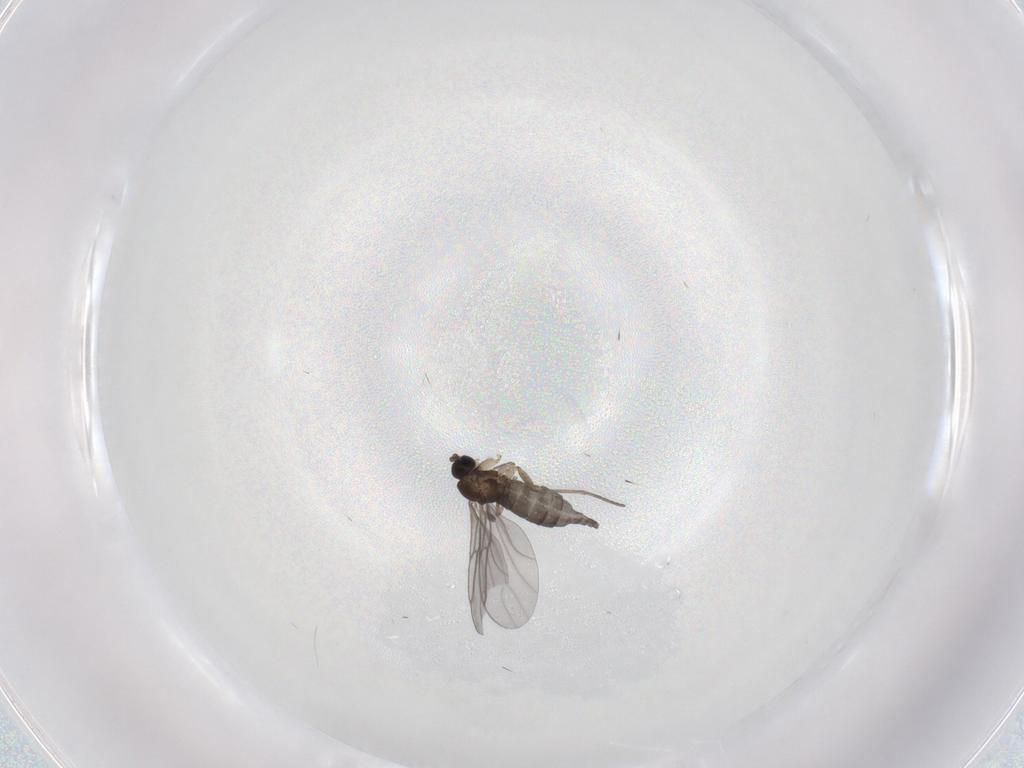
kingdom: Animalia
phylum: Arthropoda
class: Insecta
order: Diptera
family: Sciaridae
